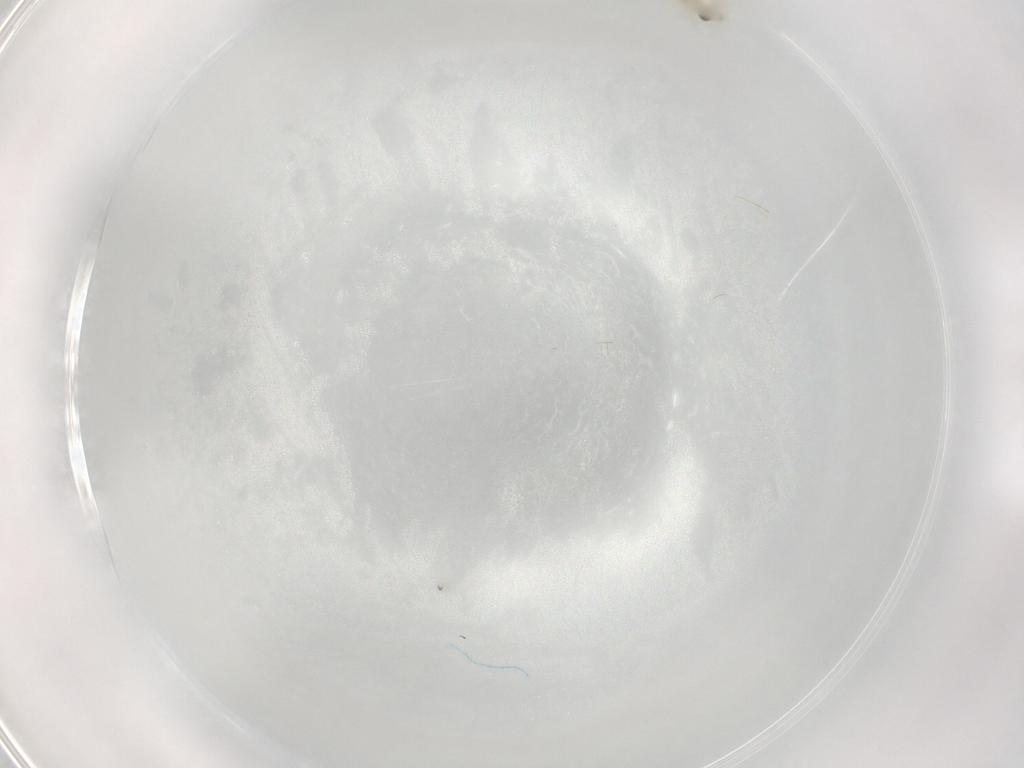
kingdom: Animalia
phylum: Arthropoda
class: Insecta
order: Diptera
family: Chironomidae
